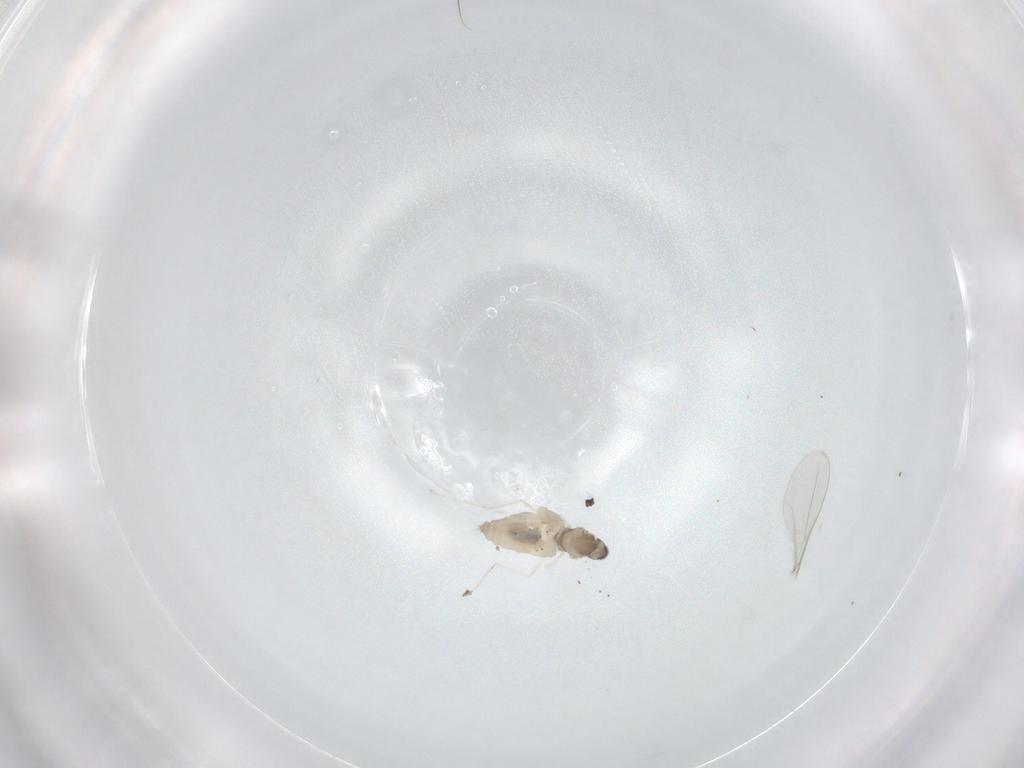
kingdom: Animalia
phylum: Arthropoda
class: Insecta
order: Diptera
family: Cecidomyiidae
